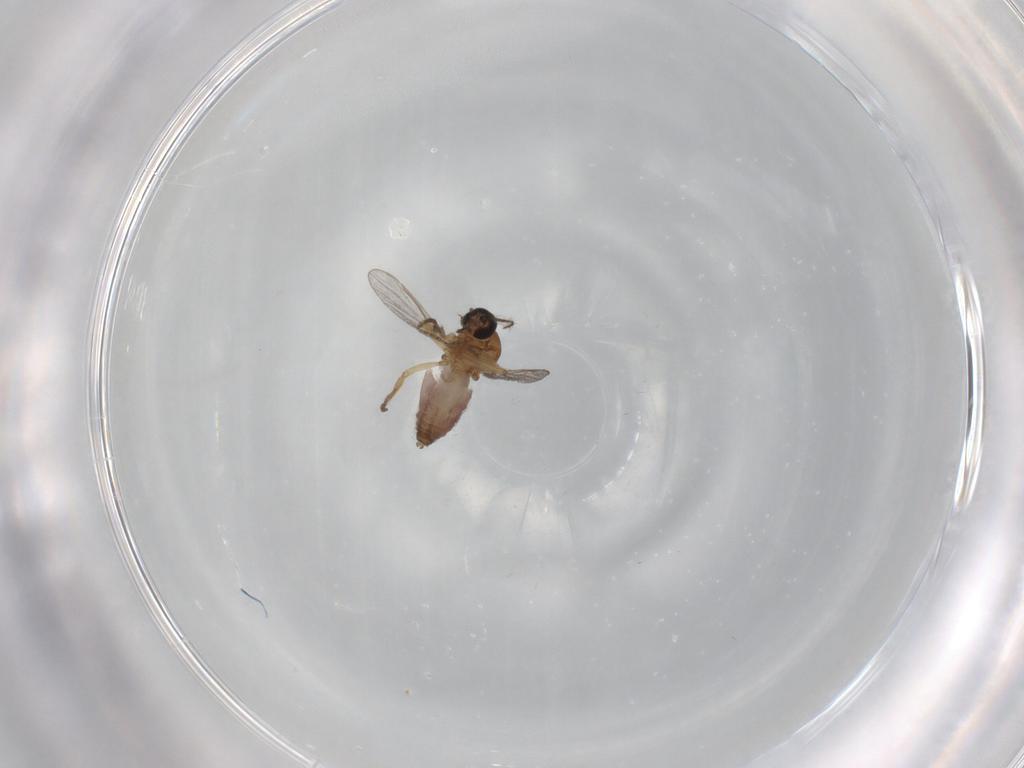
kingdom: Animalia
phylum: Arthropoda
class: Insecta
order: Diptera
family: Ceratopogonidae
